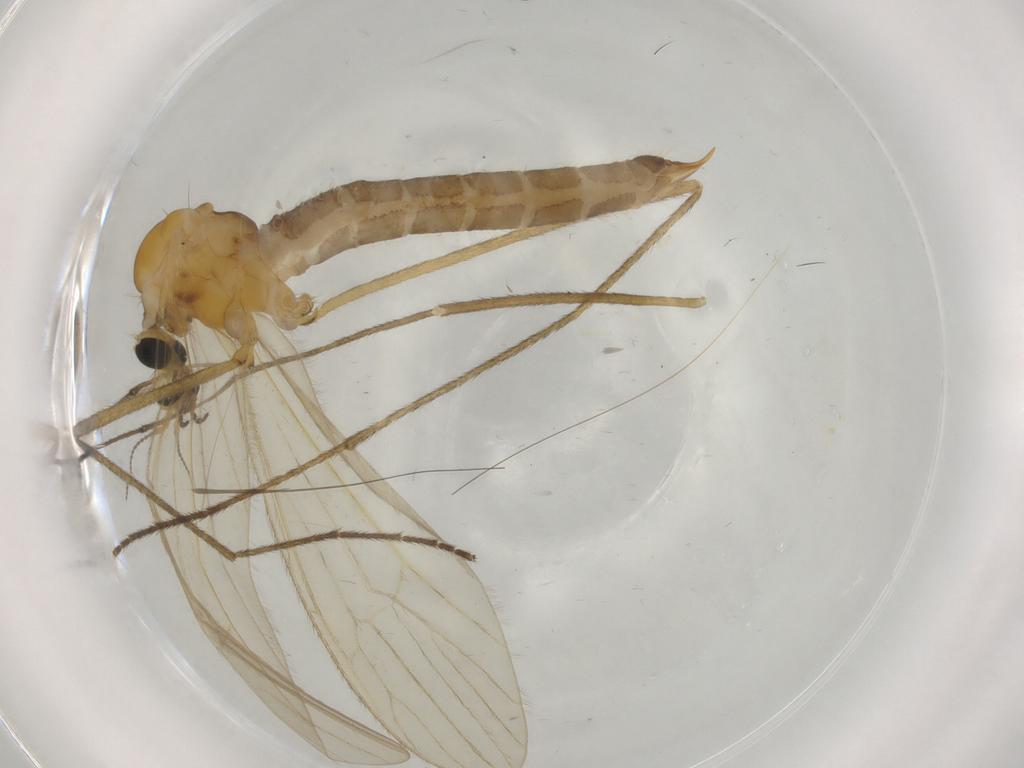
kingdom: Animalia
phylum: Arthropoda
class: Insecta
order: Diptera
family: Limoniidae
